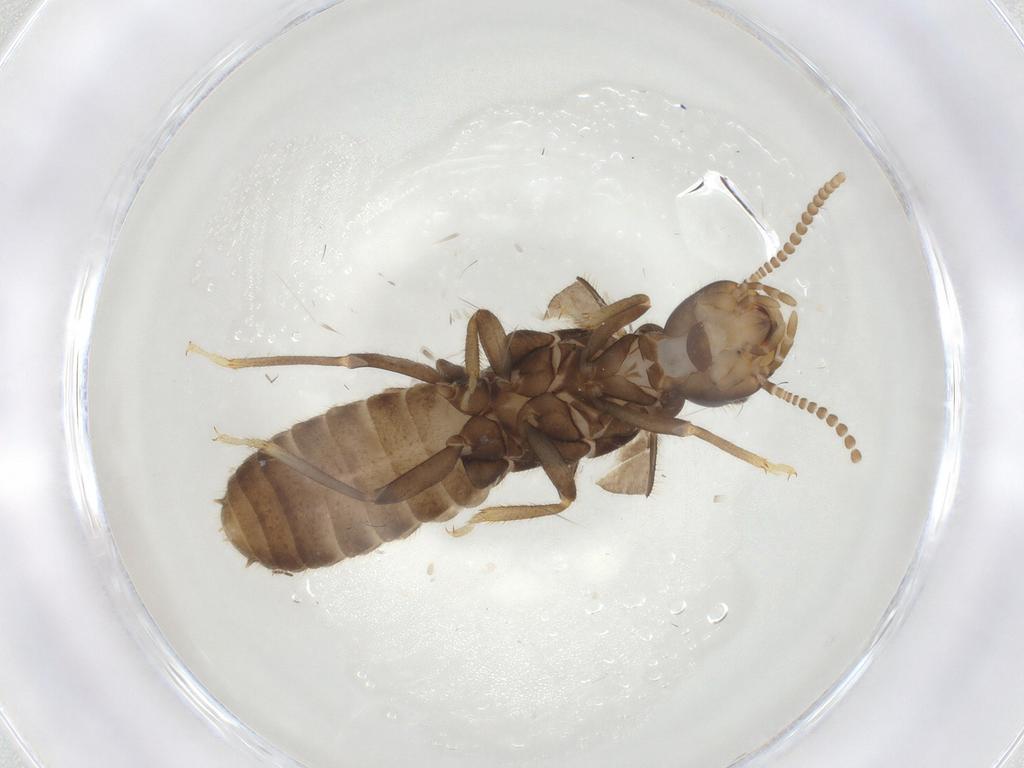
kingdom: Animalia
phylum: Arthropoda
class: Insecta
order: Blattodea
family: Rhinotermitidae
